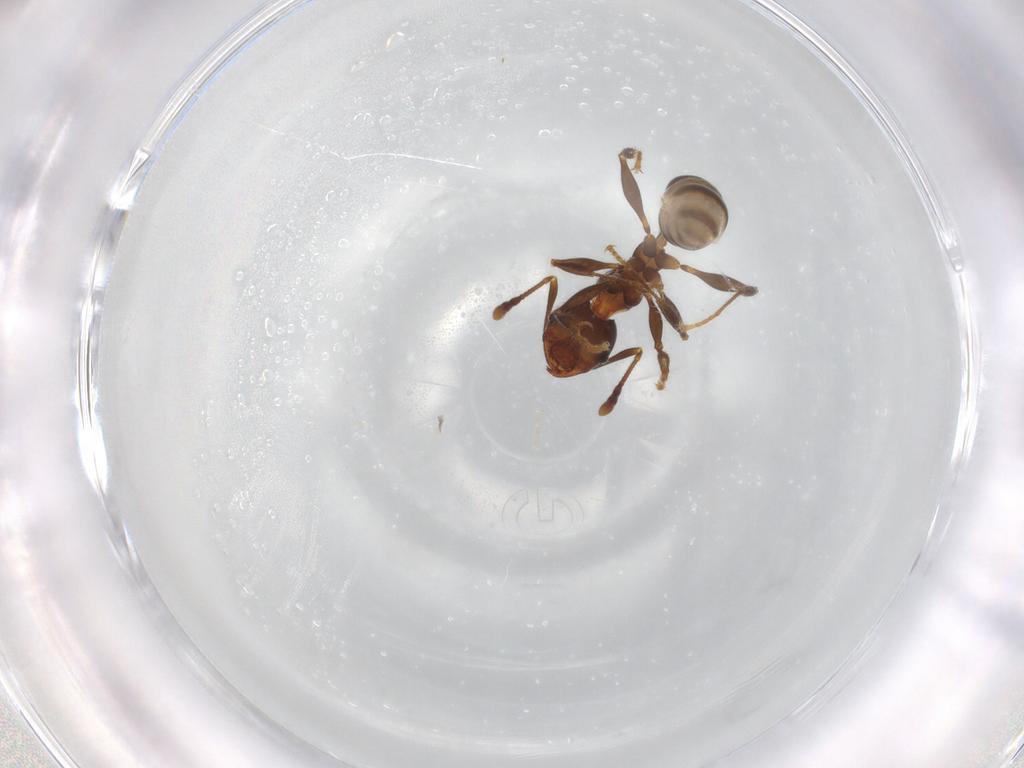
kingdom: Animalia
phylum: Arthropoda
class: Insecta
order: Hymenoptera
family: Formicidae
